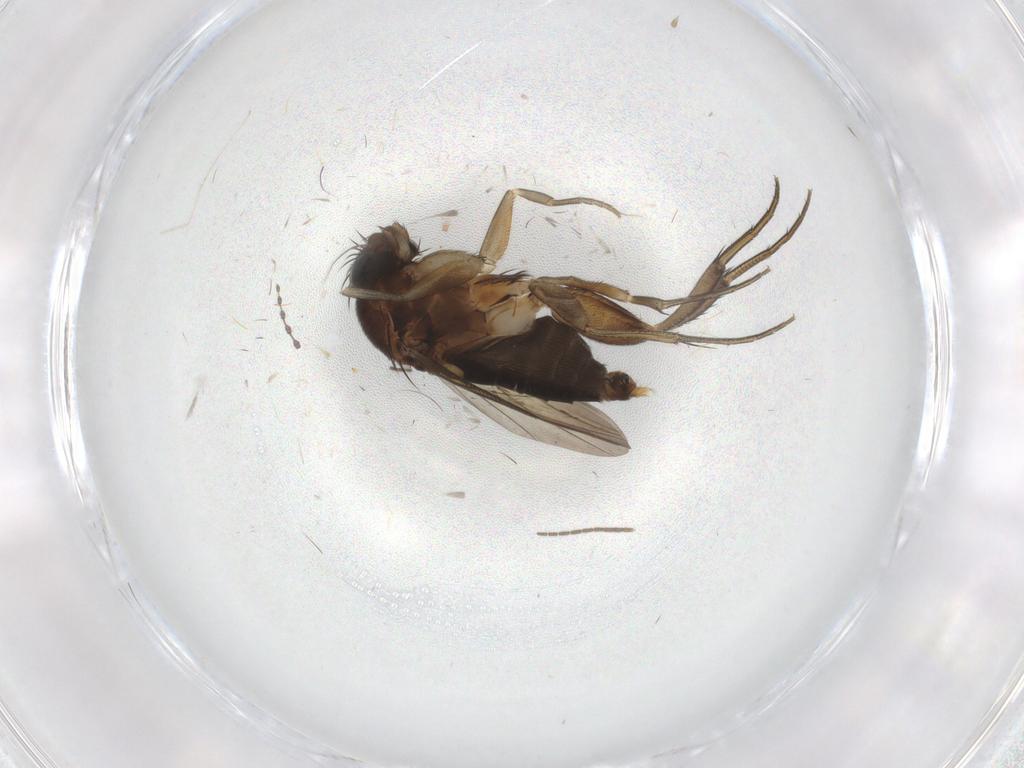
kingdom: Animalia
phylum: Arthropoda
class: Insecta
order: Diptera
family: Phoridae
